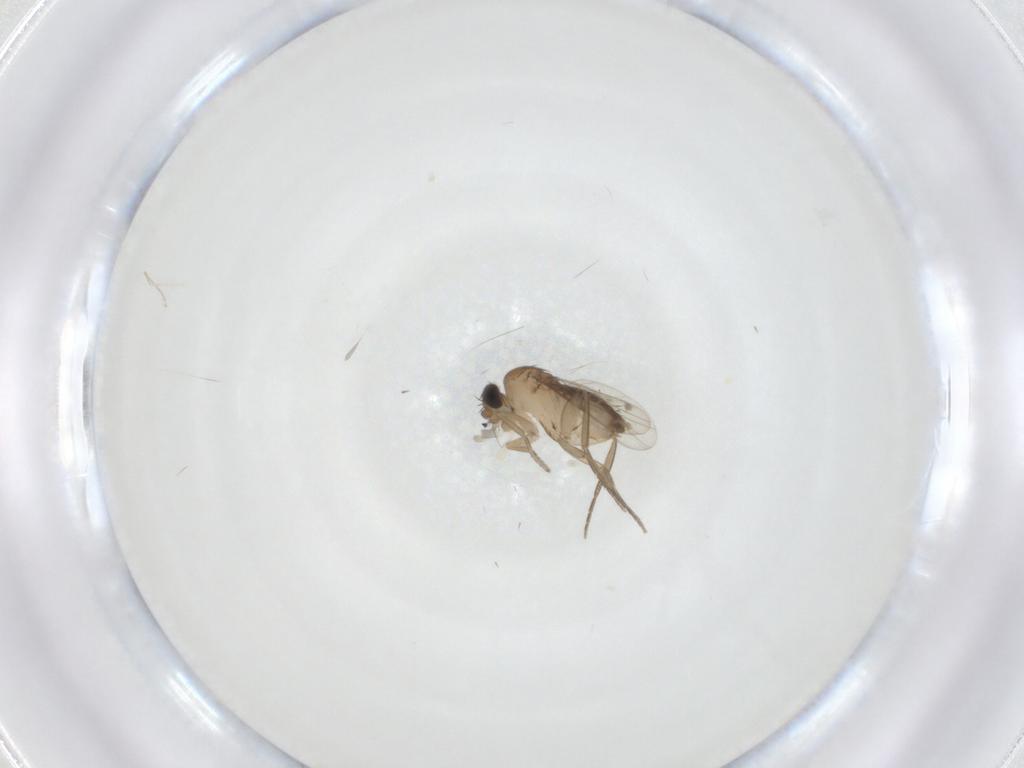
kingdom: Animalia
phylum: Arthropoda
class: Insecta
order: Diptera
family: Phoridae
